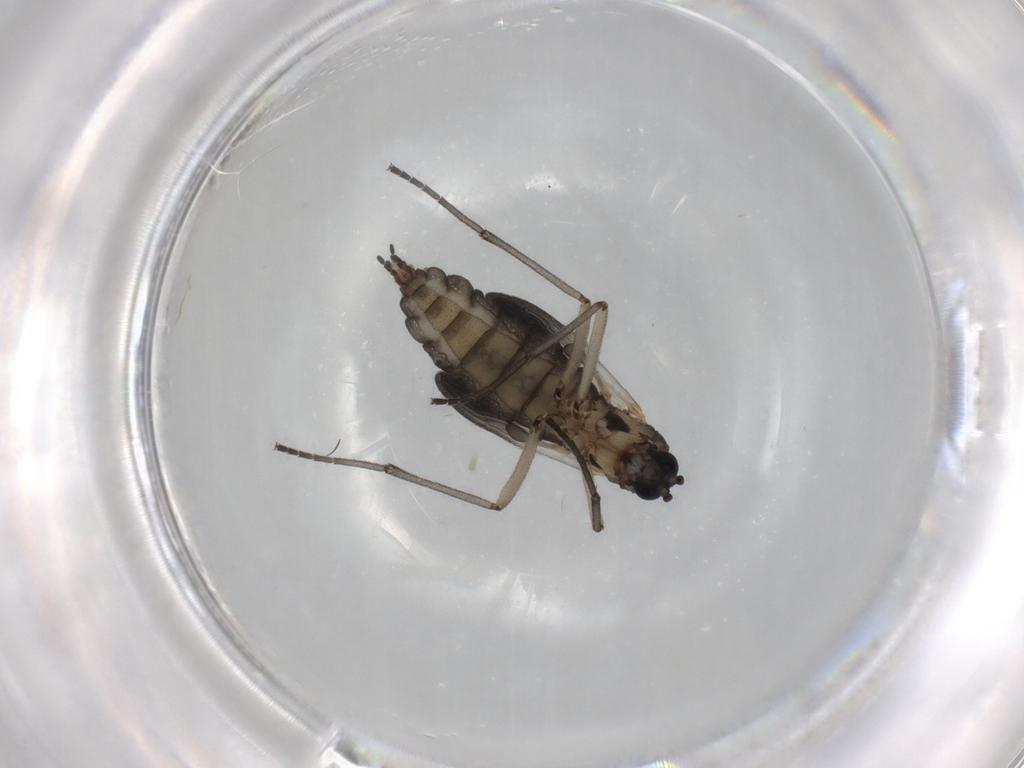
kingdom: Animalia
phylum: Arthropoda
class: Insecta
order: Diptera
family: Sciaridae
